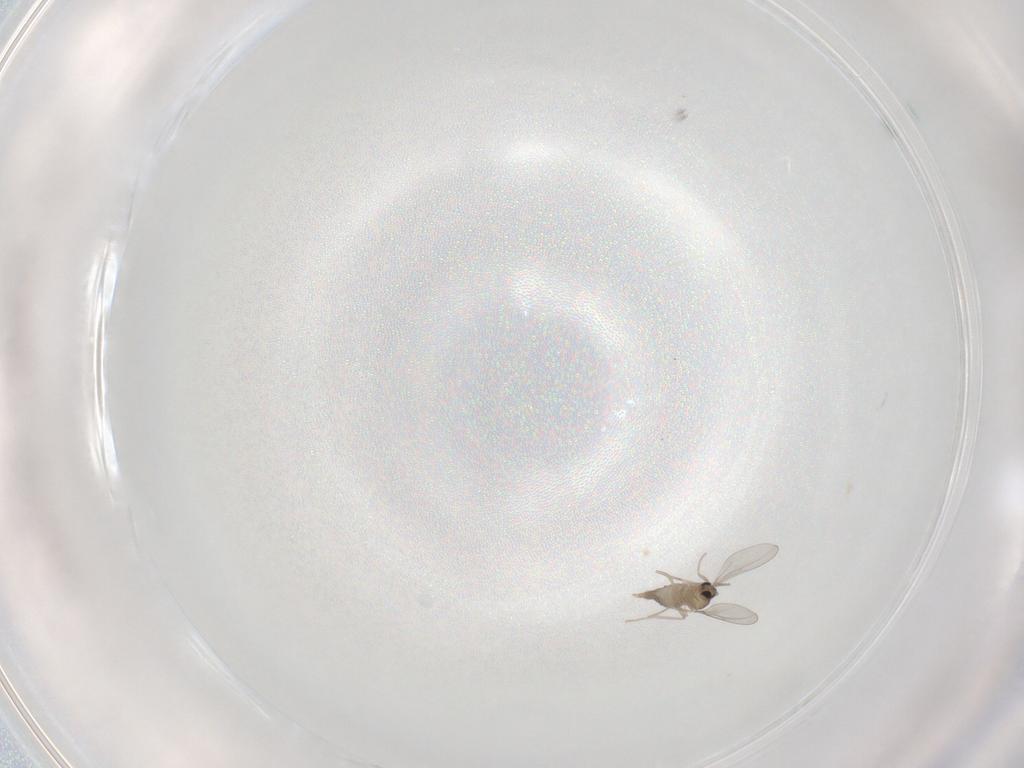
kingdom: Animalia
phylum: Arthropoda
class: Insecta
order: Diptera
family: Cecidomyiidae
